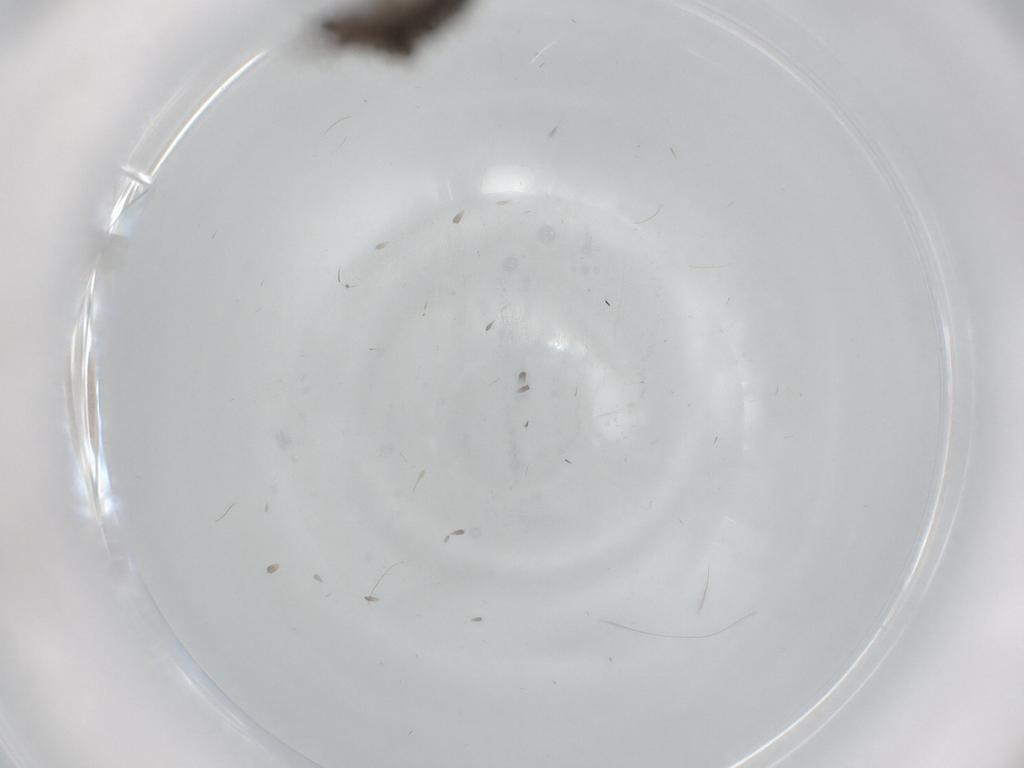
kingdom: Animalia
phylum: Arthropoda
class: Insecta
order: Diptera
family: Phoridae
